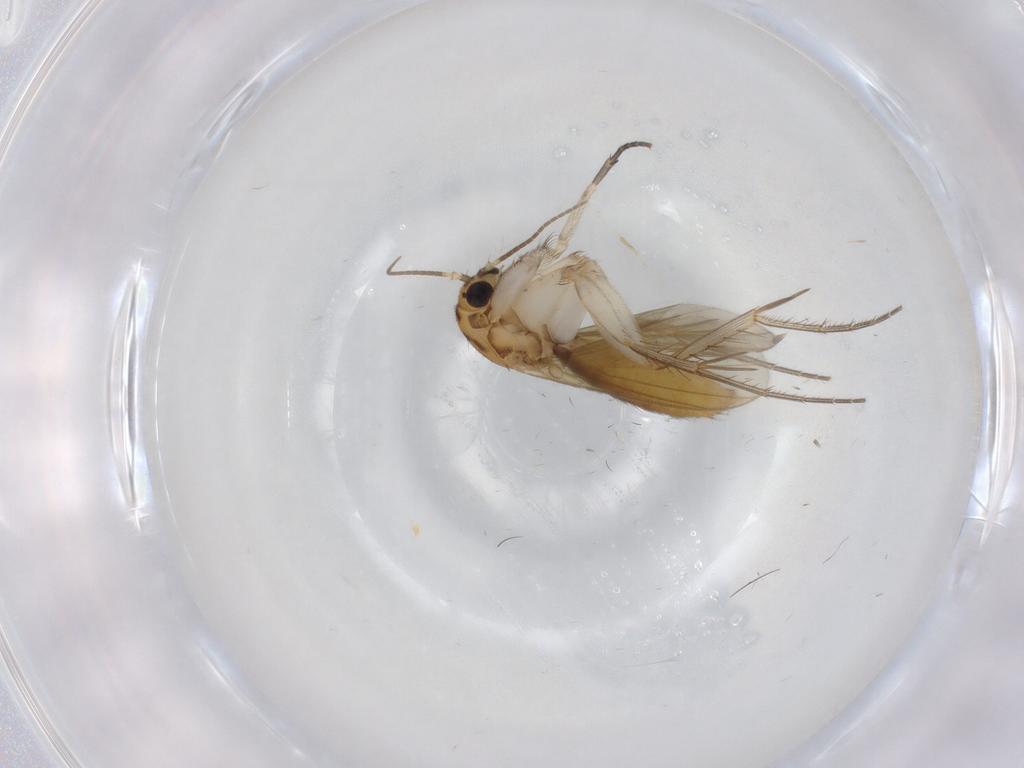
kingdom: Animalia
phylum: Arthropoda
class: Insecta
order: Diptera
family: Mycetophilidae
